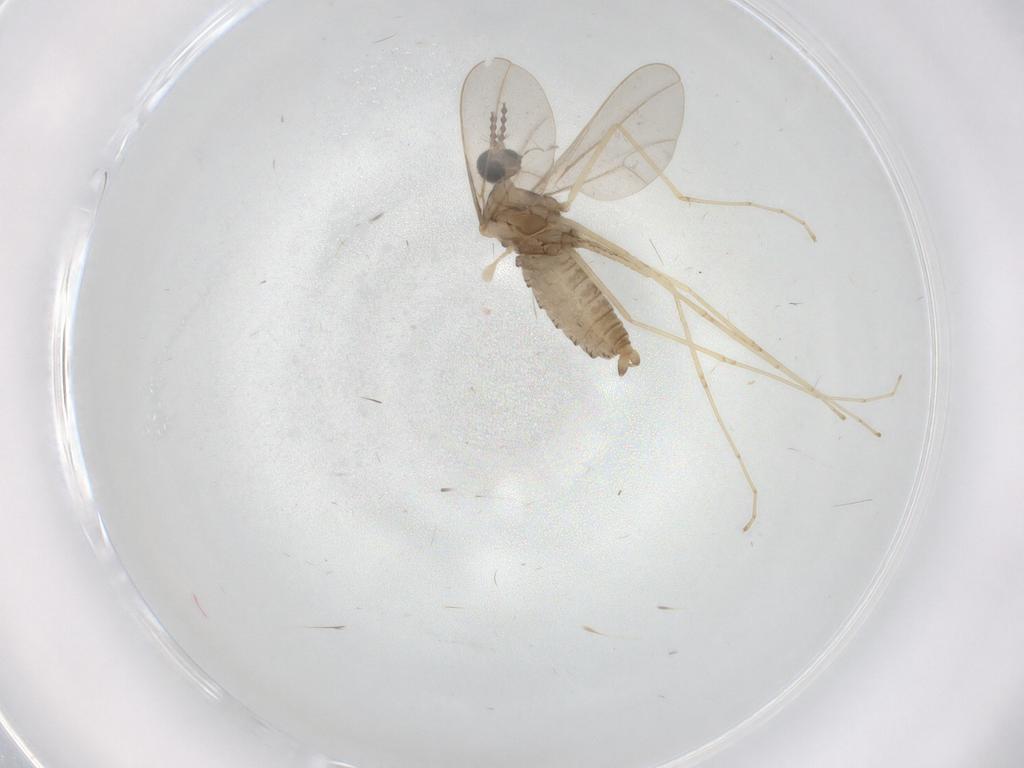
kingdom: Animalia
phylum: Arthropoda
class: Insecta
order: Diptera
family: Cecidomyiidae
